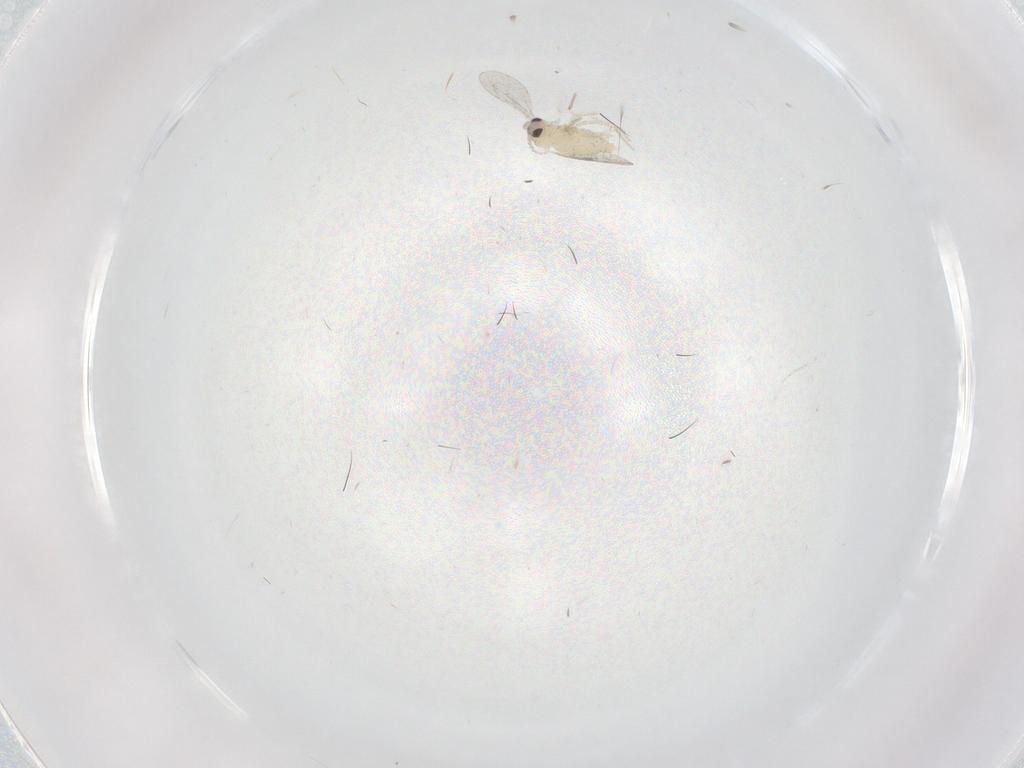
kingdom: Animalia
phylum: Arthropoda
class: Insecta
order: Diptera
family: Cecidomyiidae
